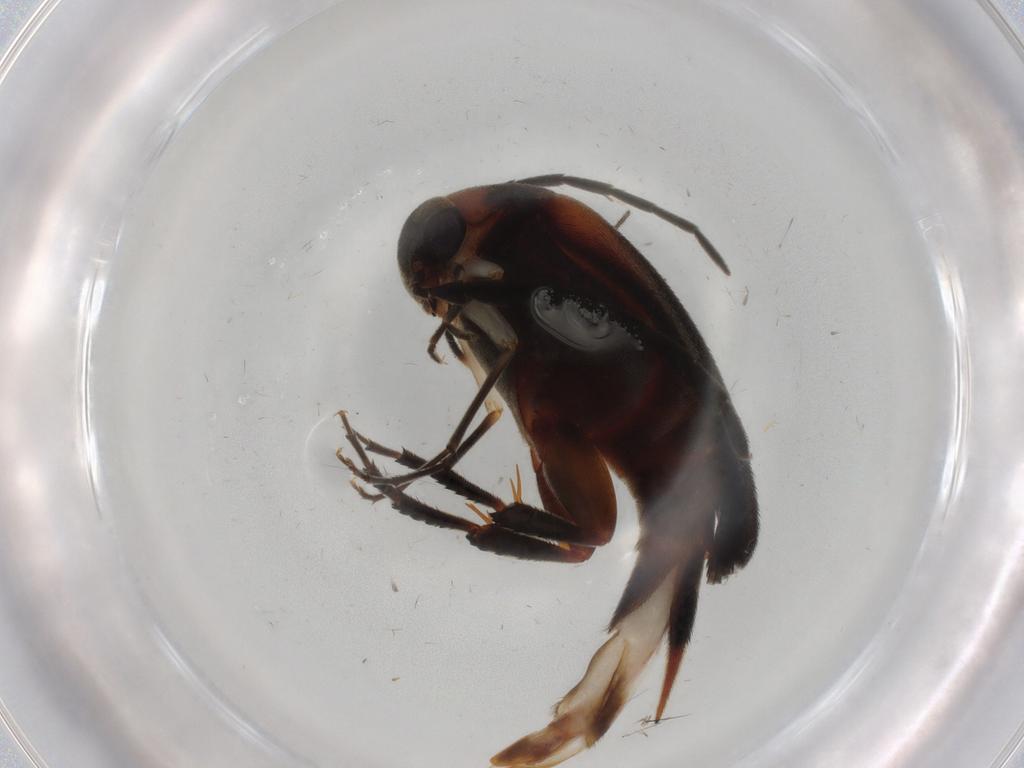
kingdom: Animalia
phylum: Arthropoda
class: Insecta
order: Coleoptera
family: Mordellidae
